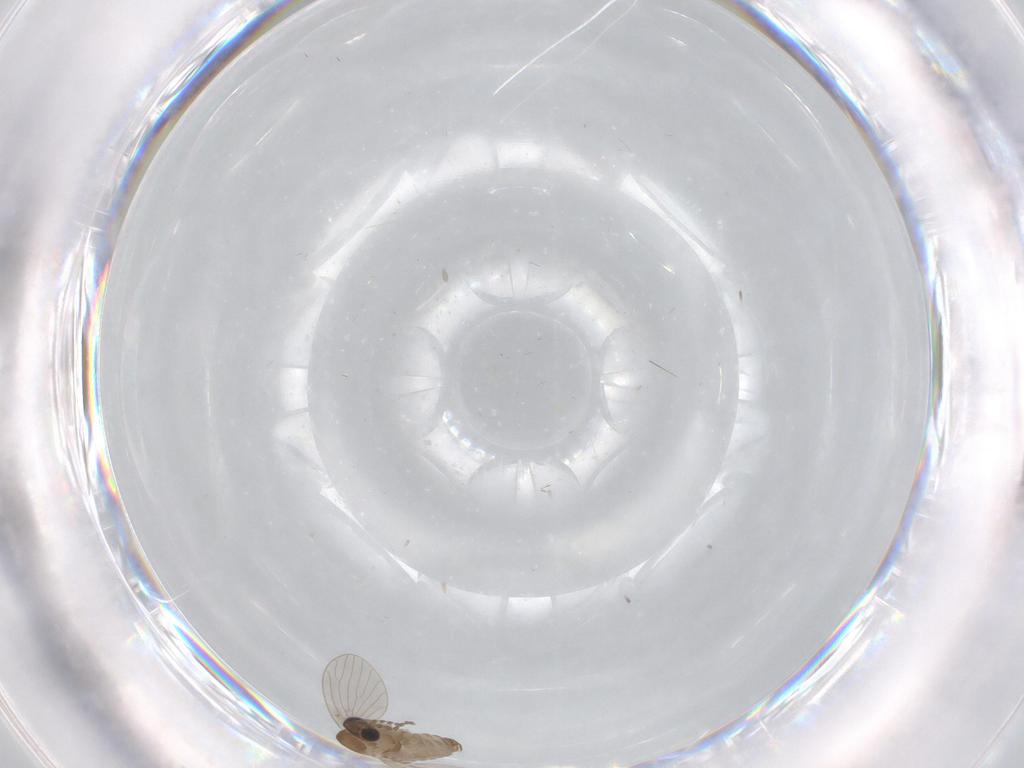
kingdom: Animalia
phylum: Arthropoda
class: Insecta
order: Diptera
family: Psychodidae
